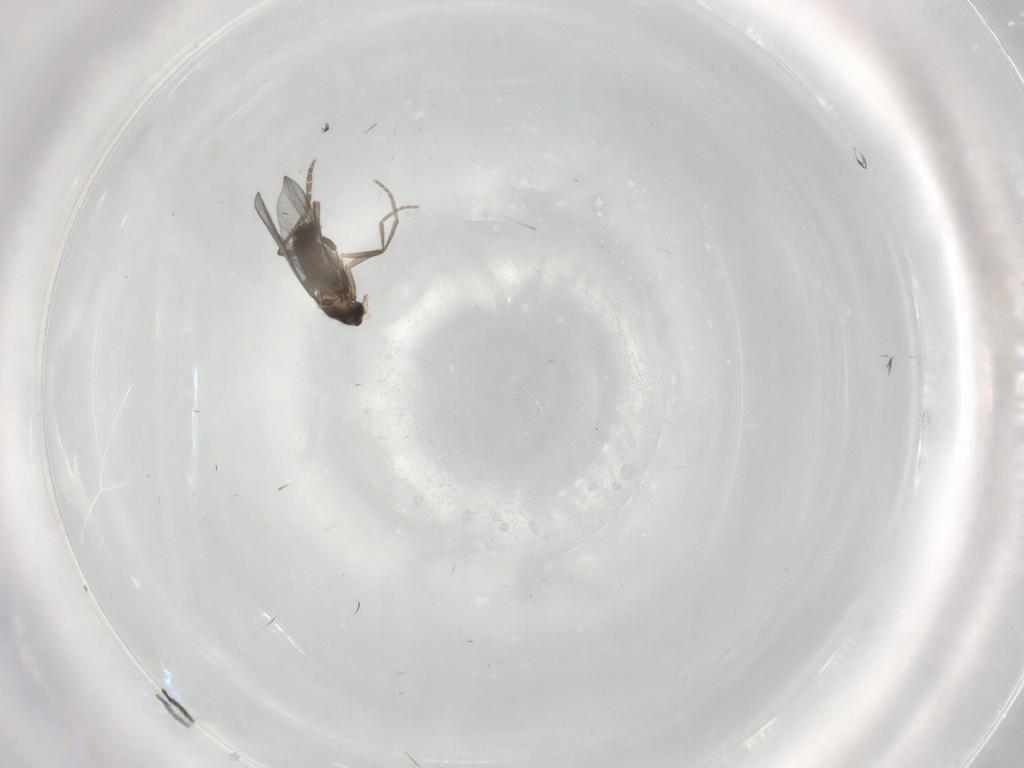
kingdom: Animalia
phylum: Arthropoda
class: Insecta
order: Diptera
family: Phoridae
